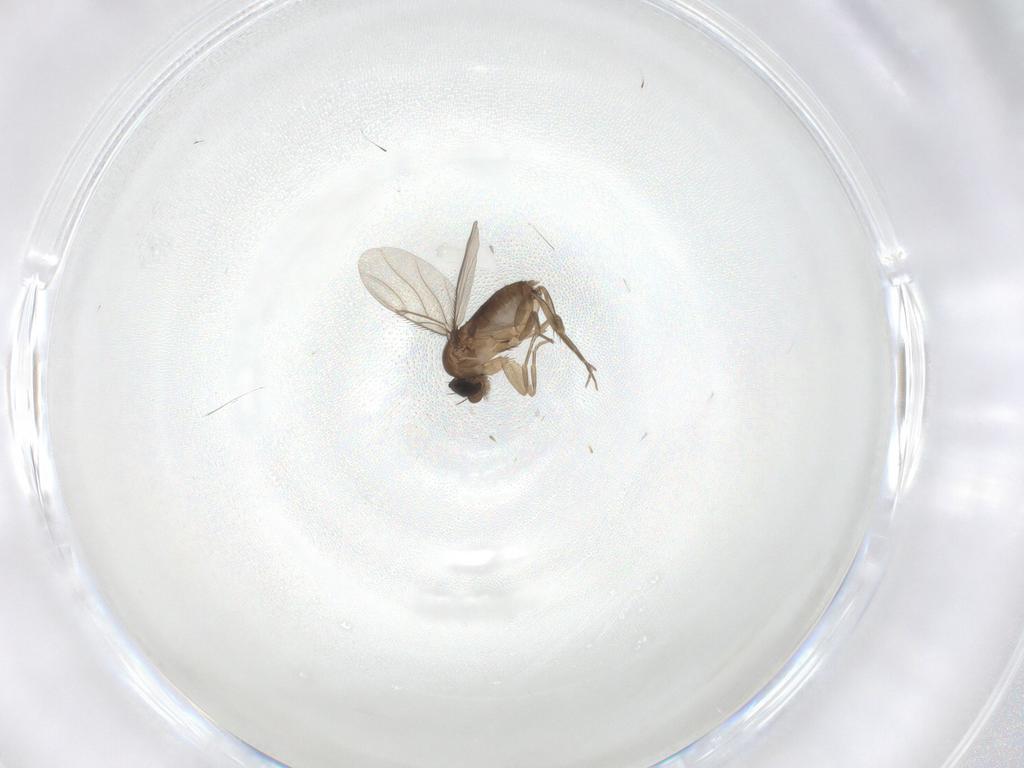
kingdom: Animalia
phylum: Arthropoda
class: Insecta
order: Diptera
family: Phoridae
